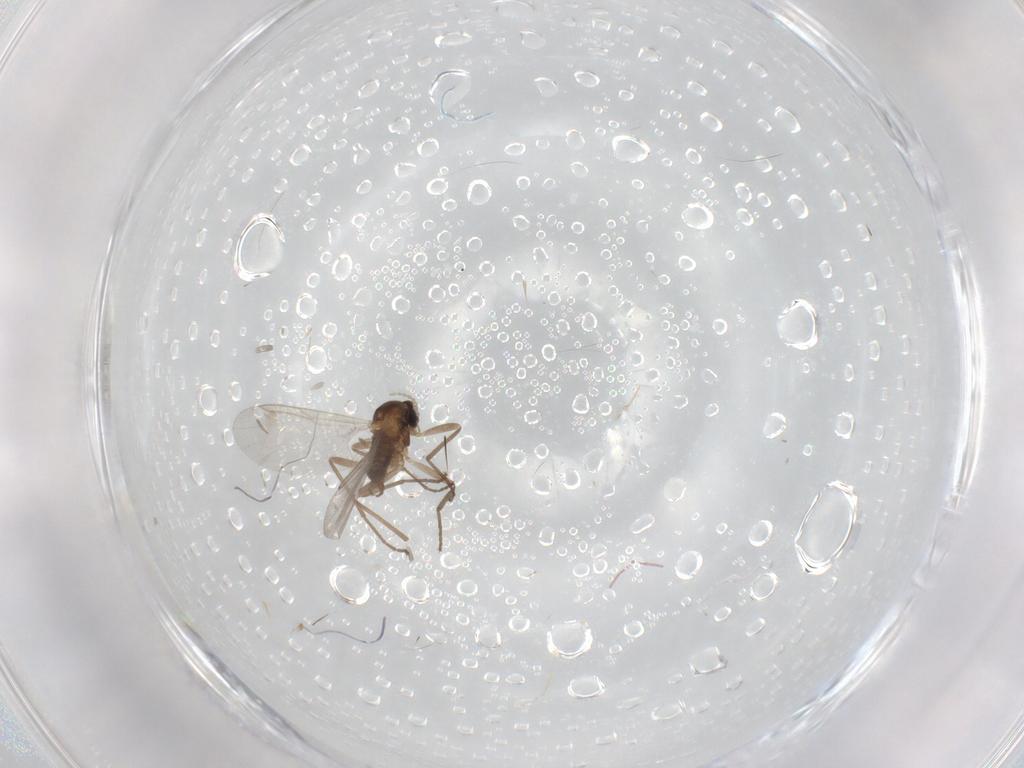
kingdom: Animalia
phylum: Arthropoda
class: Insecta
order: Diptera
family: Cecidomyiidae
